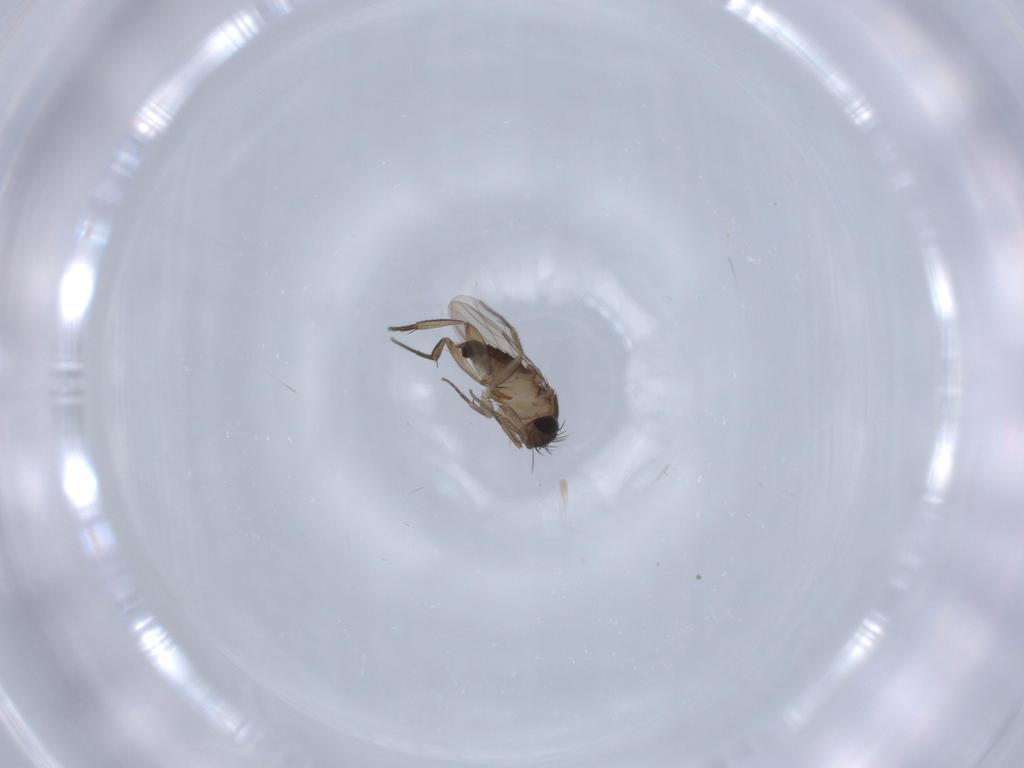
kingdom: Animalia
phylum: Arthropoda
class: Insecta
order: Diptera
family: Phoridae
